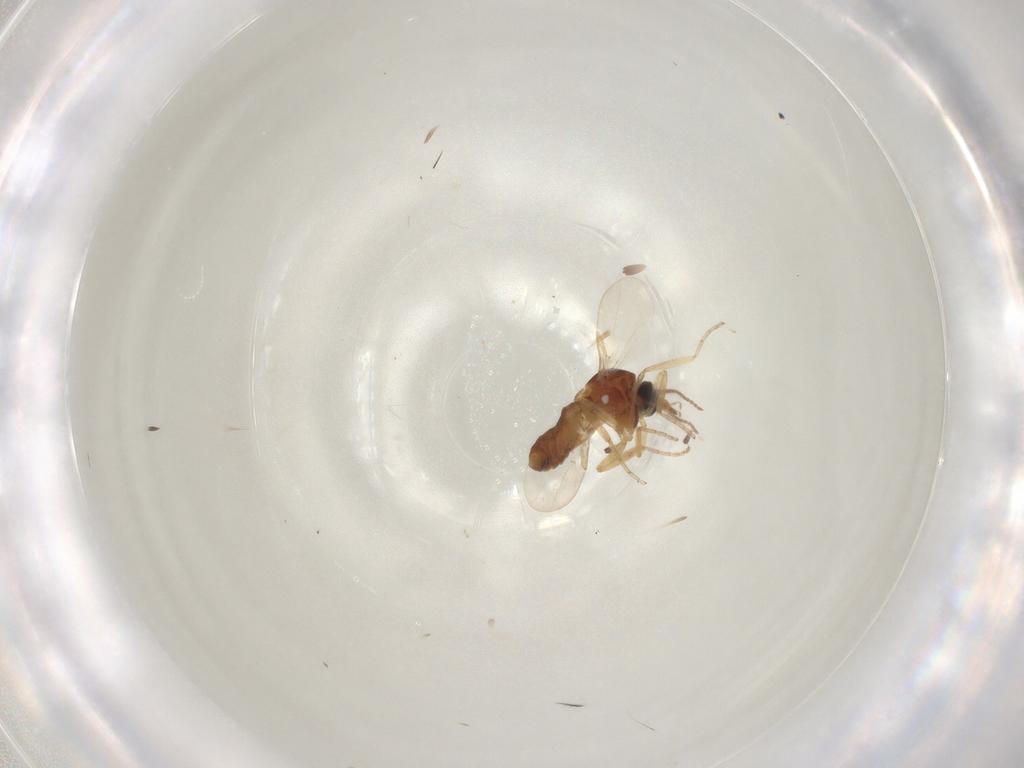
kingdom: Animalia
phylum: Arthropoda
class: Insecta
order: Diptera
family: Ceratopogonidae
